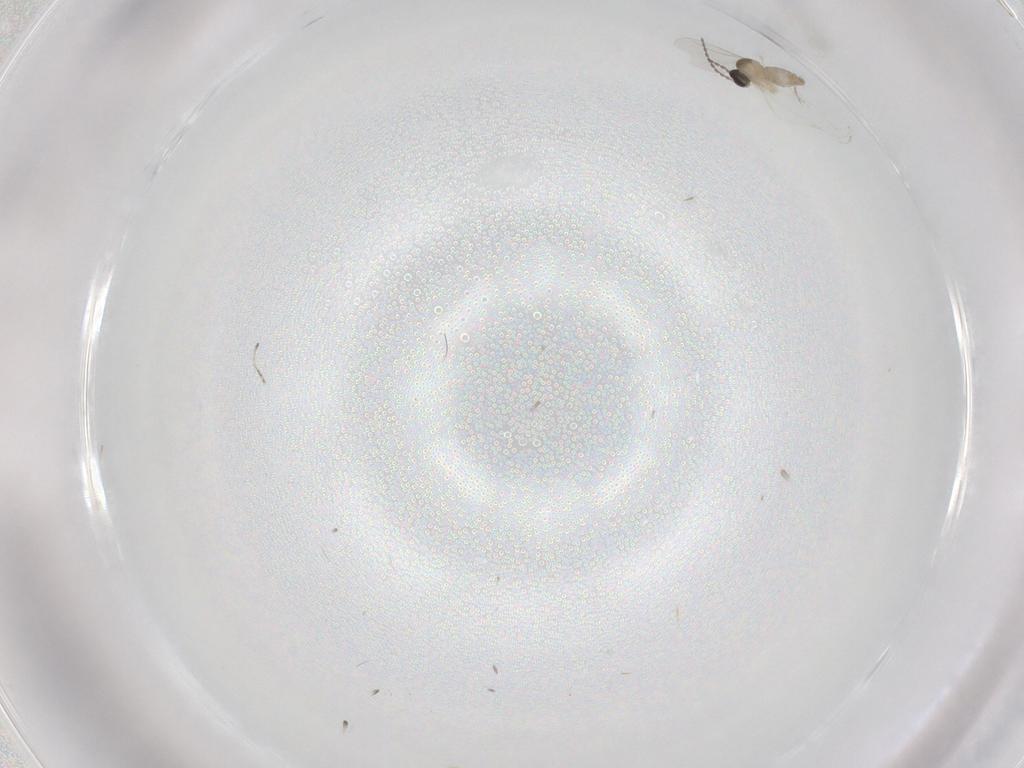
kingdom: Animalia
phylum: Arthropoda
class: Insecta
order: Diptera
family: Cecidomyiidae
